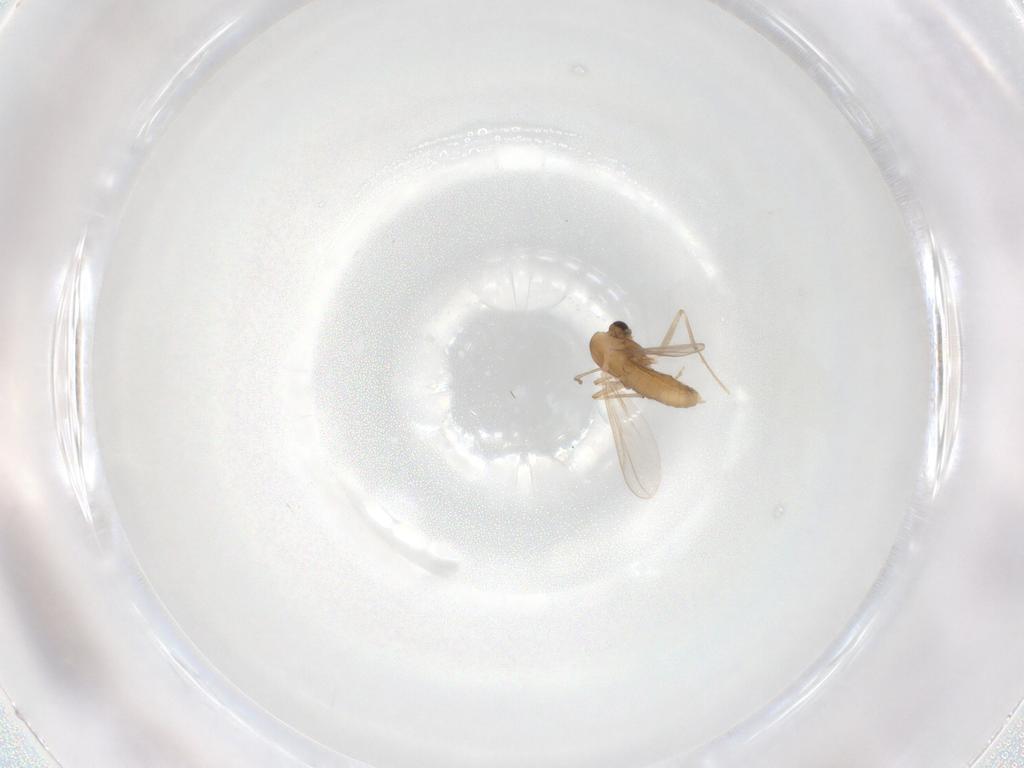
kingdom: Animalia
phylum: Arthropoda
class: Insecta
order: Diptera
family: Chironomidae
